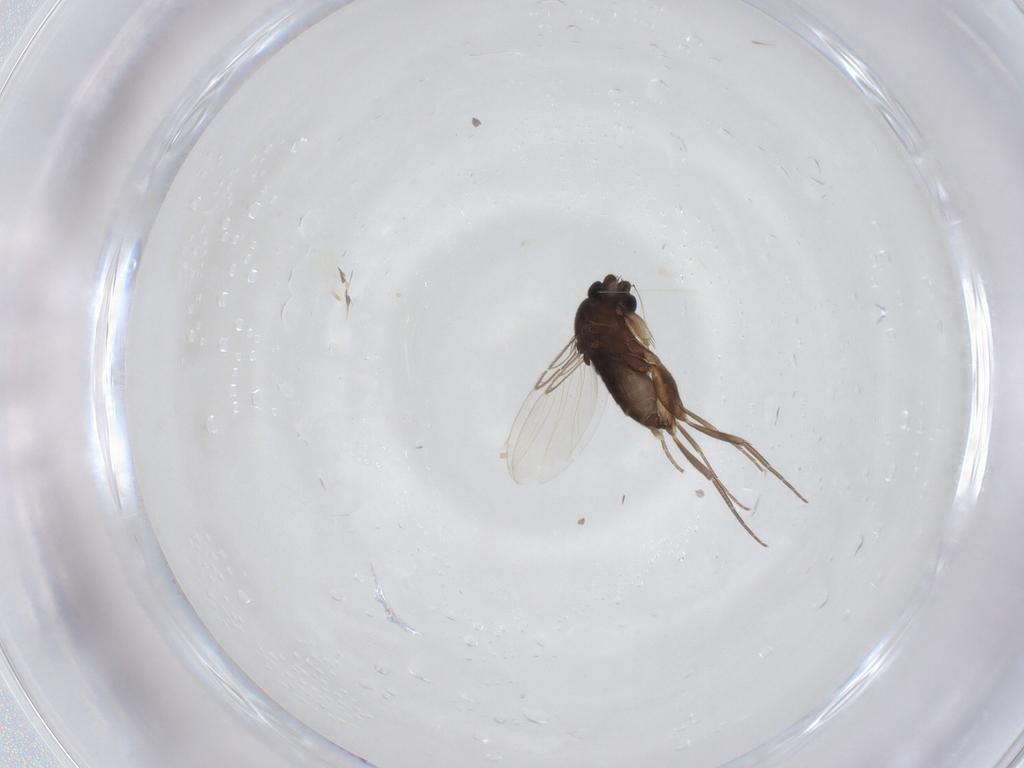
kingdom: Animalia
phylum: Arthropoda
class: Insecta
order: Diptera
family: Phoridae
